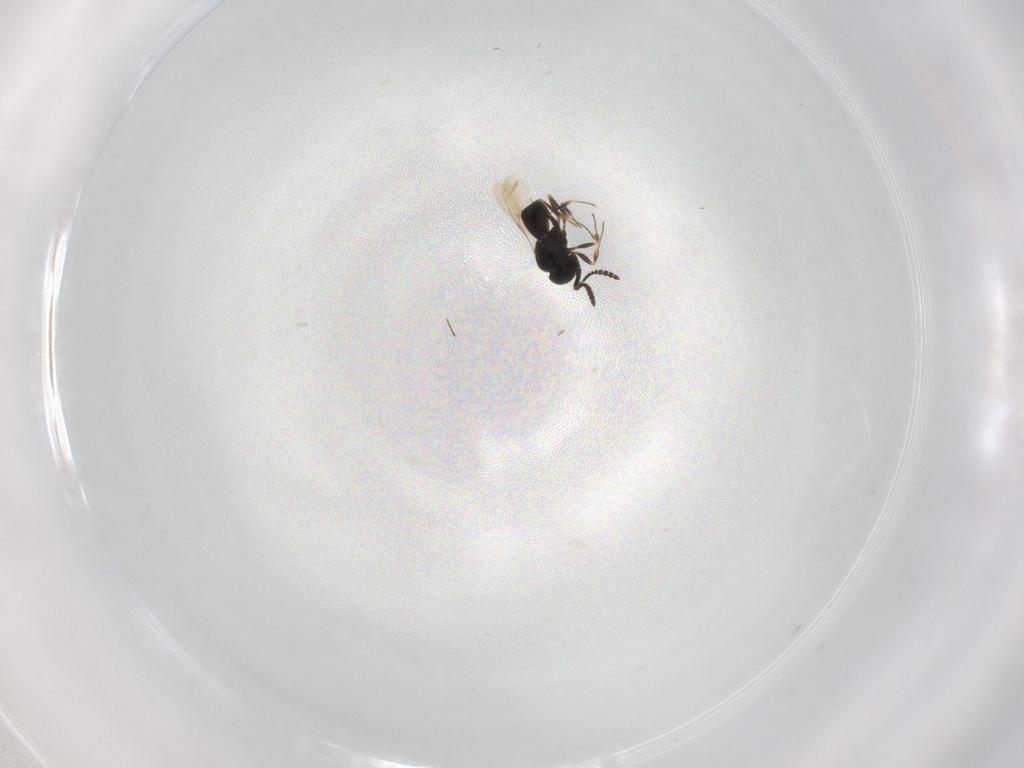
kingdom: Animalia
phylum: Arthropoda
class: Insecta
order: Hymenoptera
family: Scelionidae
